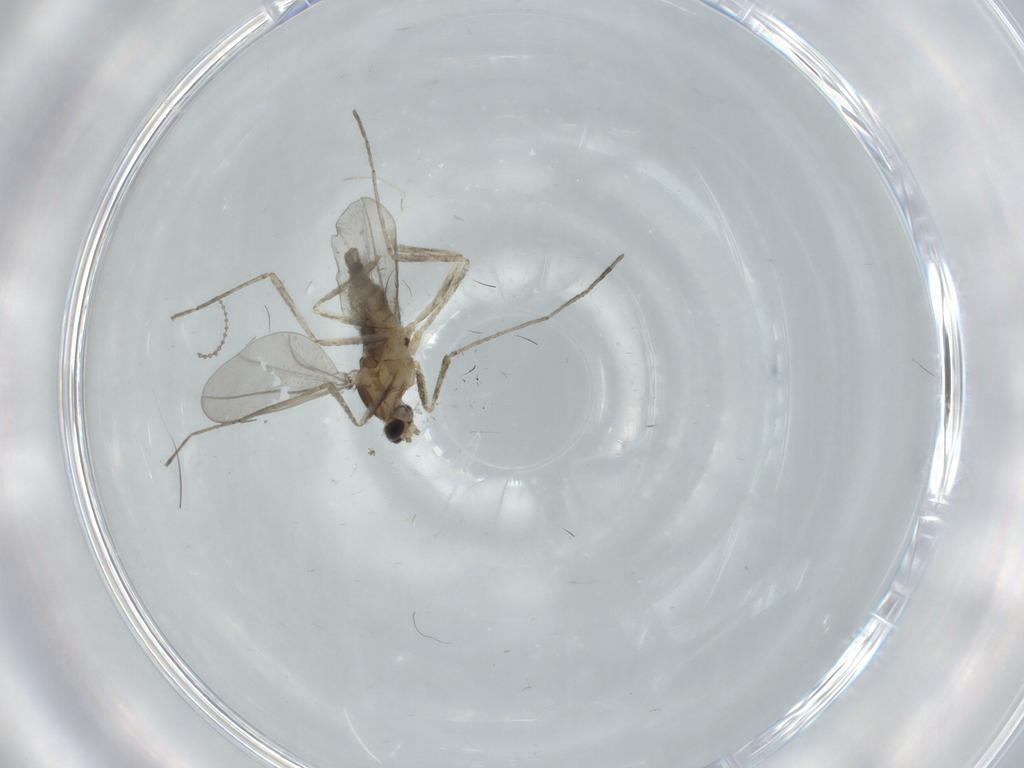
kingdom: Animalia
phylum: Arthropoda
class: Insecta
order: Diptera
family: Cecidomyiidae
